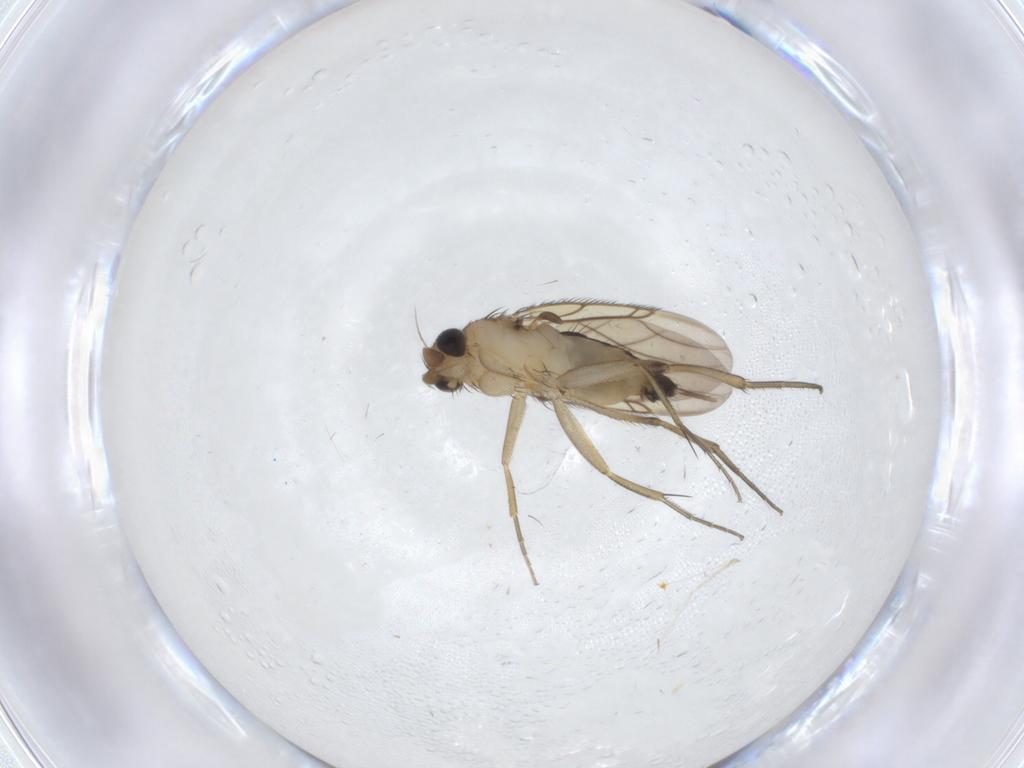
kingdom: Animalia
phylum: Arthropoda
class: Insecta
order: Diptera
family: Phoridae
